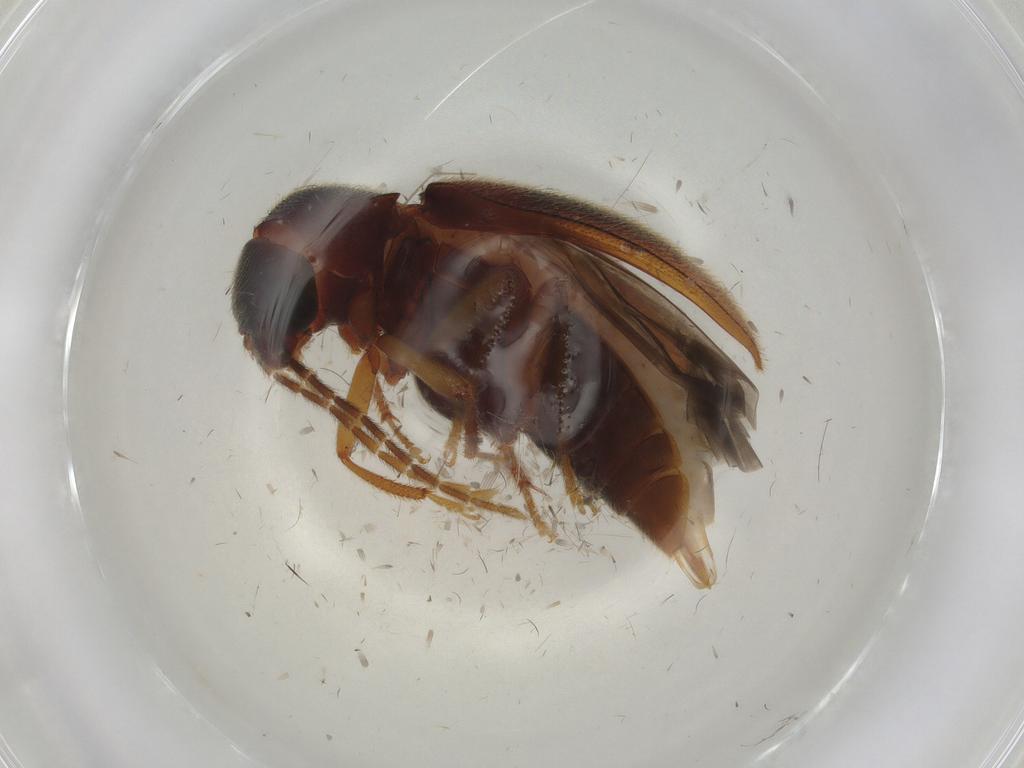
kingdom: Animalia
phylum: Arthropoda
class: Insecta
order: Coleoptera
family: Ptilodactylidae
